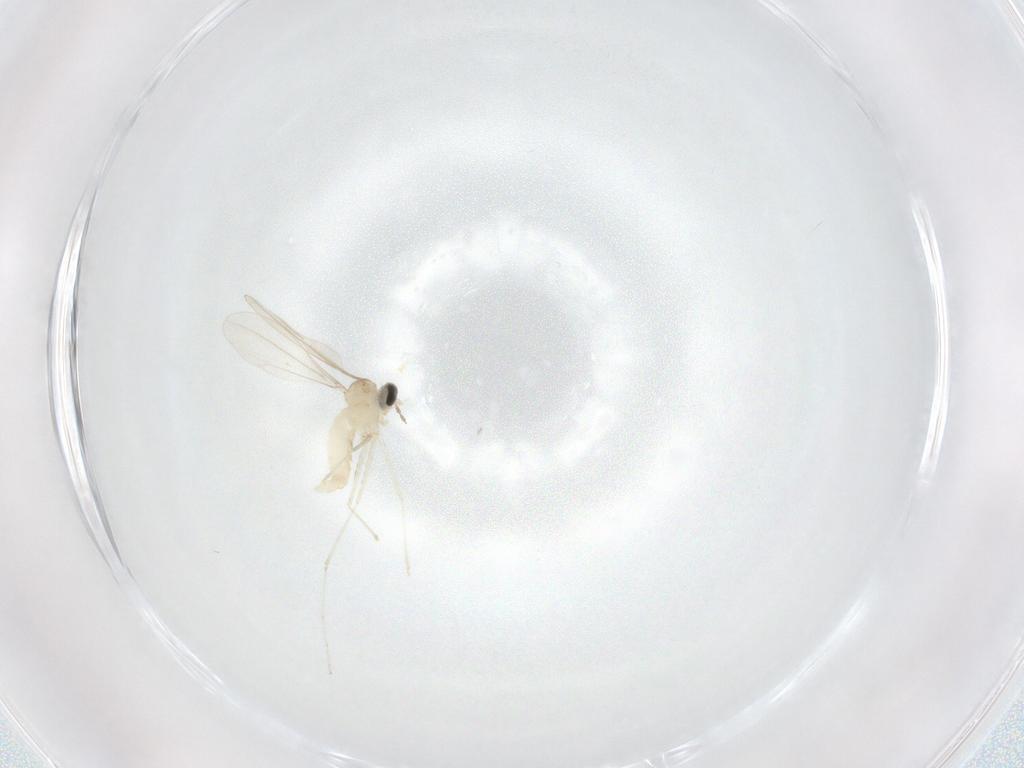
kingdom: Animalia
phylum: Arthropoda
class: Insecta
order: Diptera
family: Cecidomyiidae
